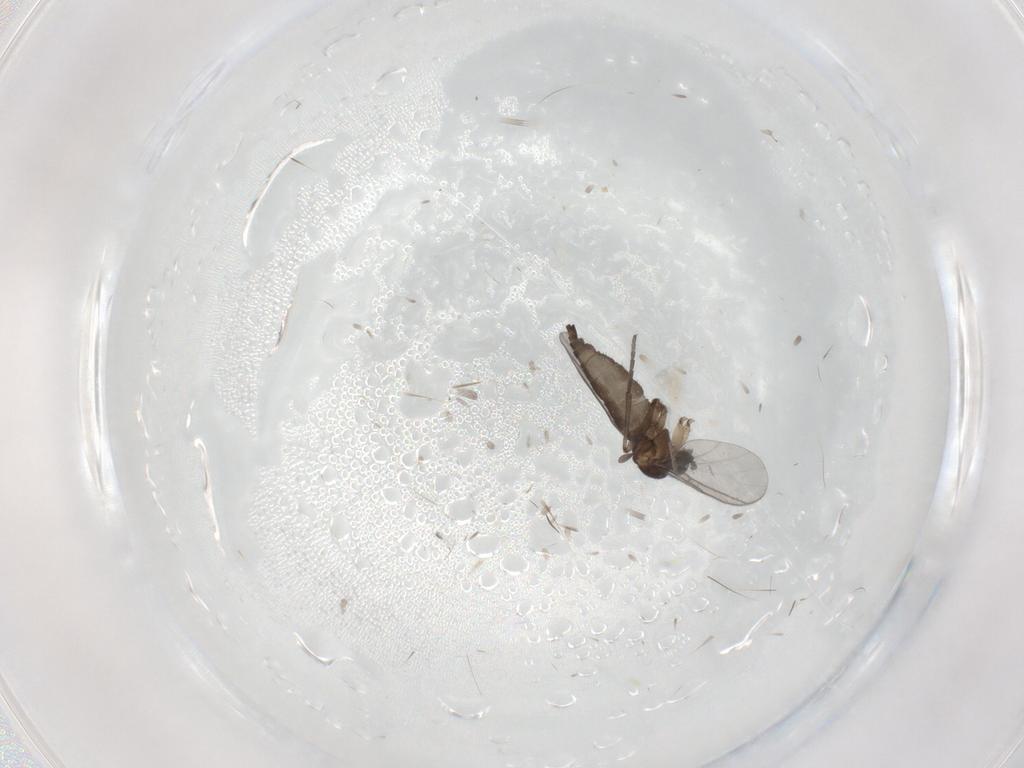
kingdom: Animalia
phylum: Arthropoda
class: Insecta
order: Diptera
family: Sciaridae
